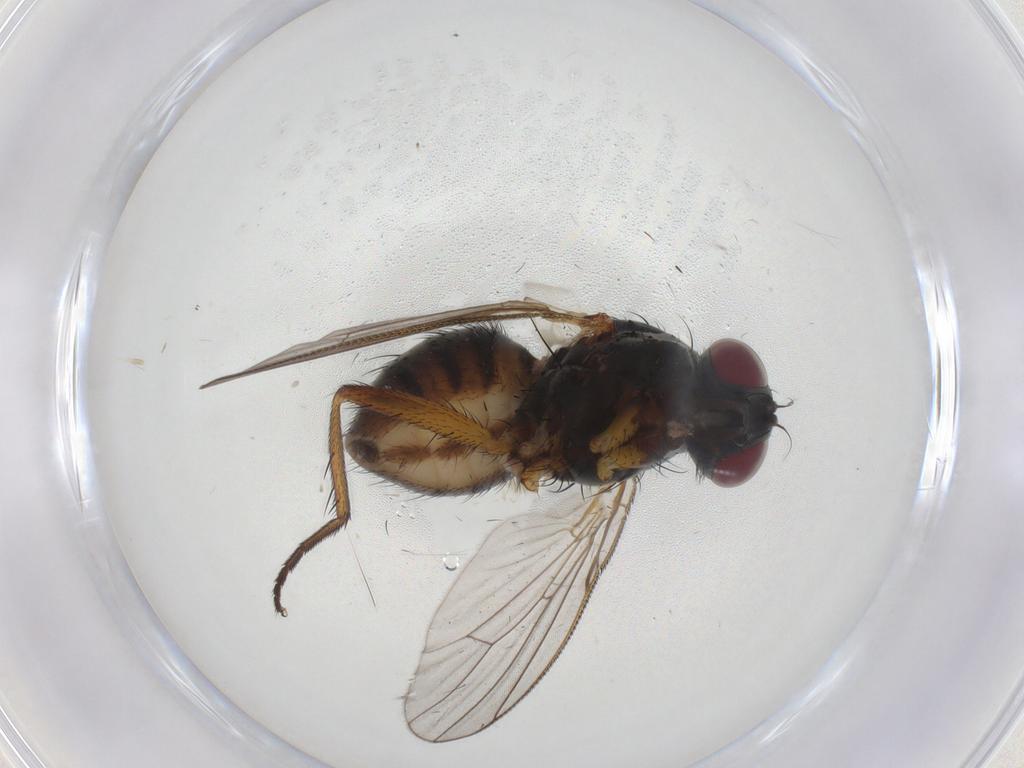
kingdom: Animalia
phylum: Arthropoda
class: Insecta
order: Diptera
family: Muscidae
